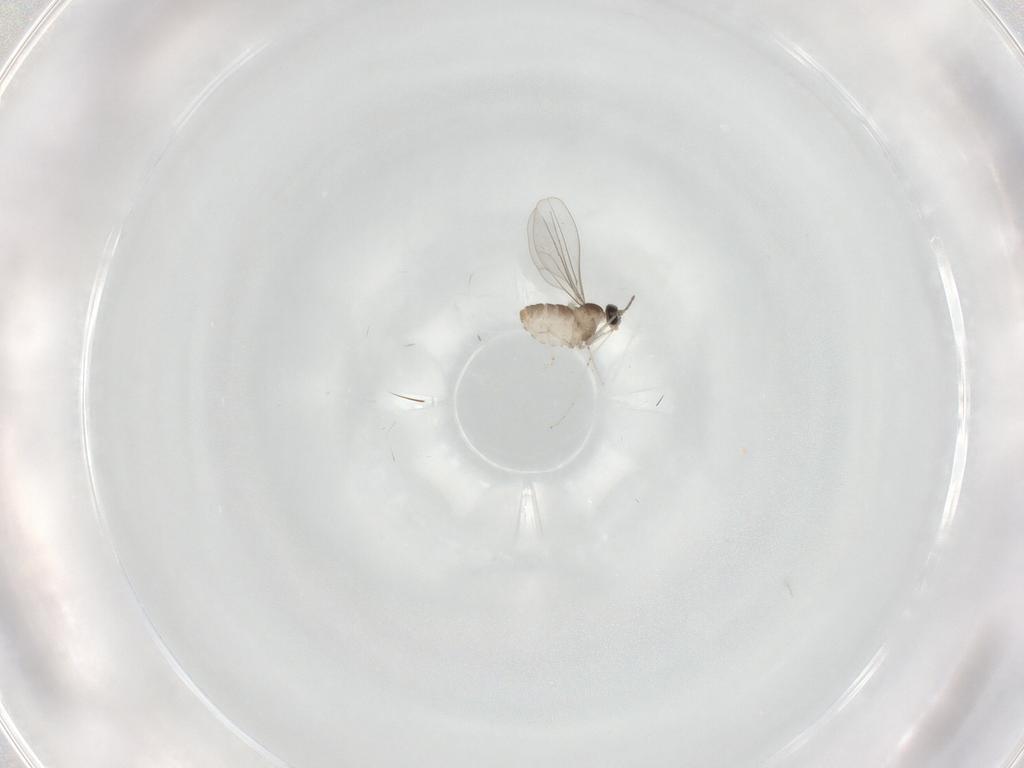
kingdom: Animalia
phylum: Arthropoda
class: Insecta
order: Diptera
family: Cecidomyiidae
